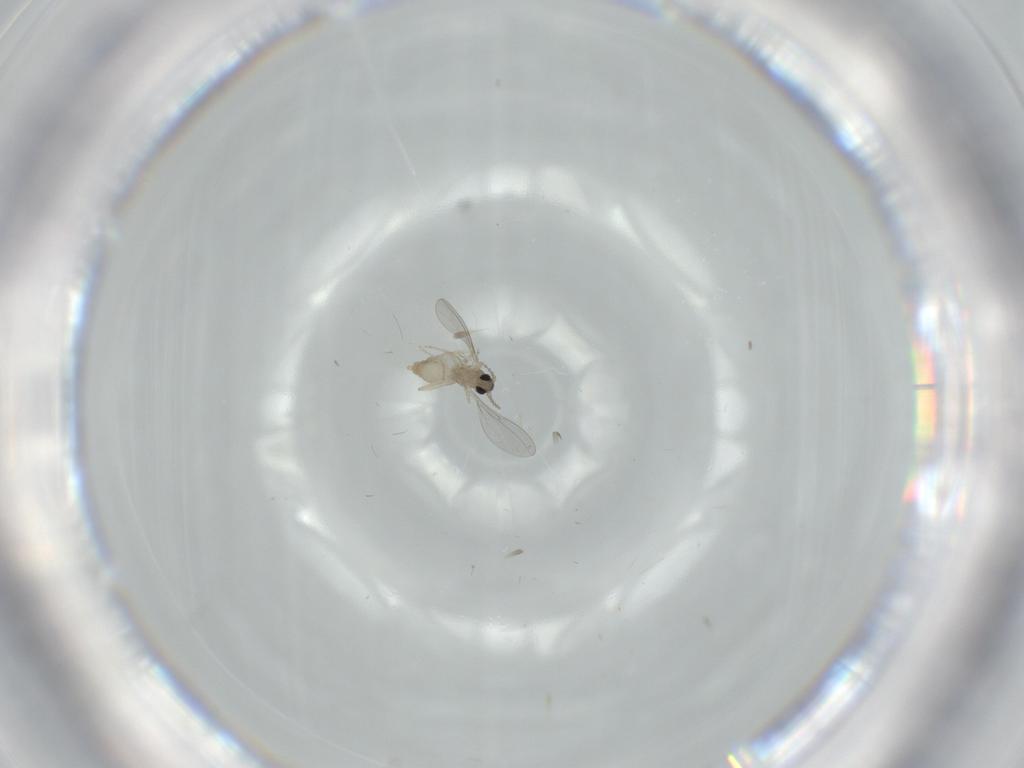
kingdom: Animalia
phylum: Arthropoda
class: Insecta
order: Diptera
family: Cecidomyiidae
